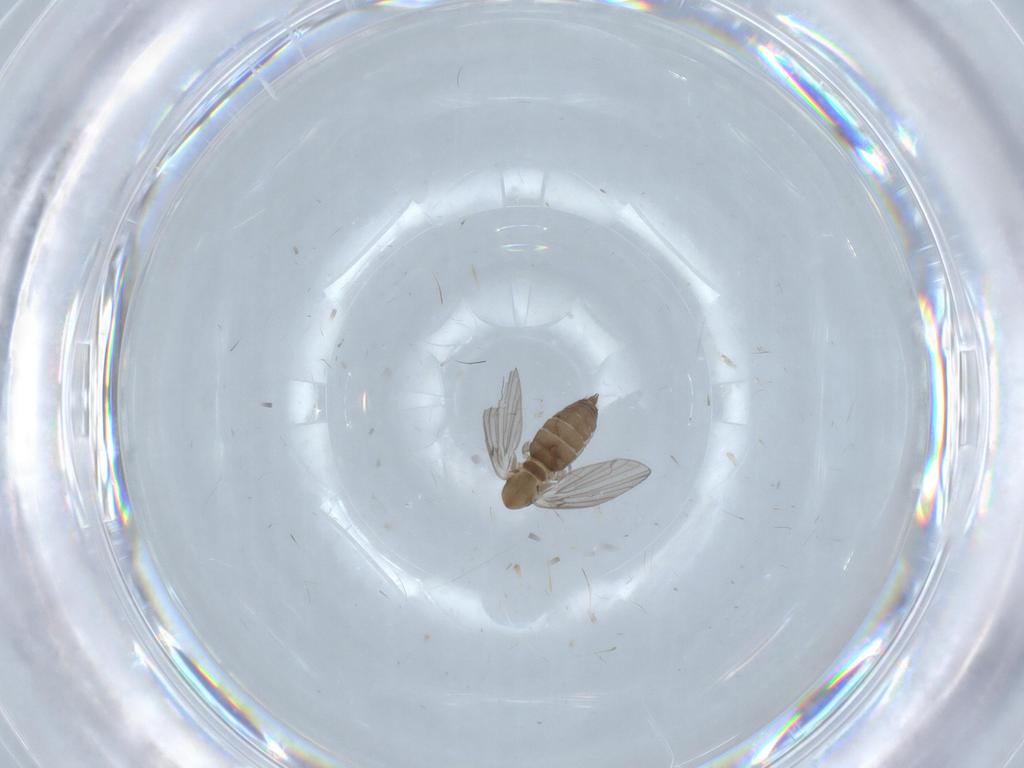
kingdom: Animalia
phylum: Arthropoda
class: Insecta
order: Diptera
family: Psychodidae
